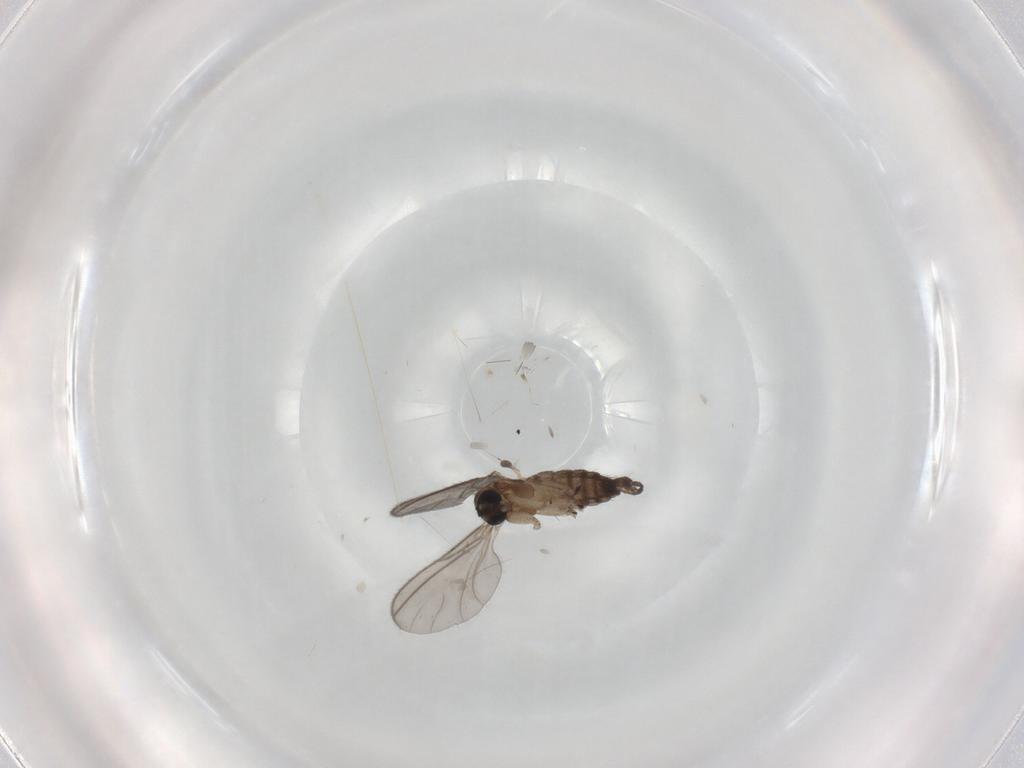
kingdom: Animalia
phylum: Arthropoda
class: Insecta
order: Diptera
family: Sciaridae
